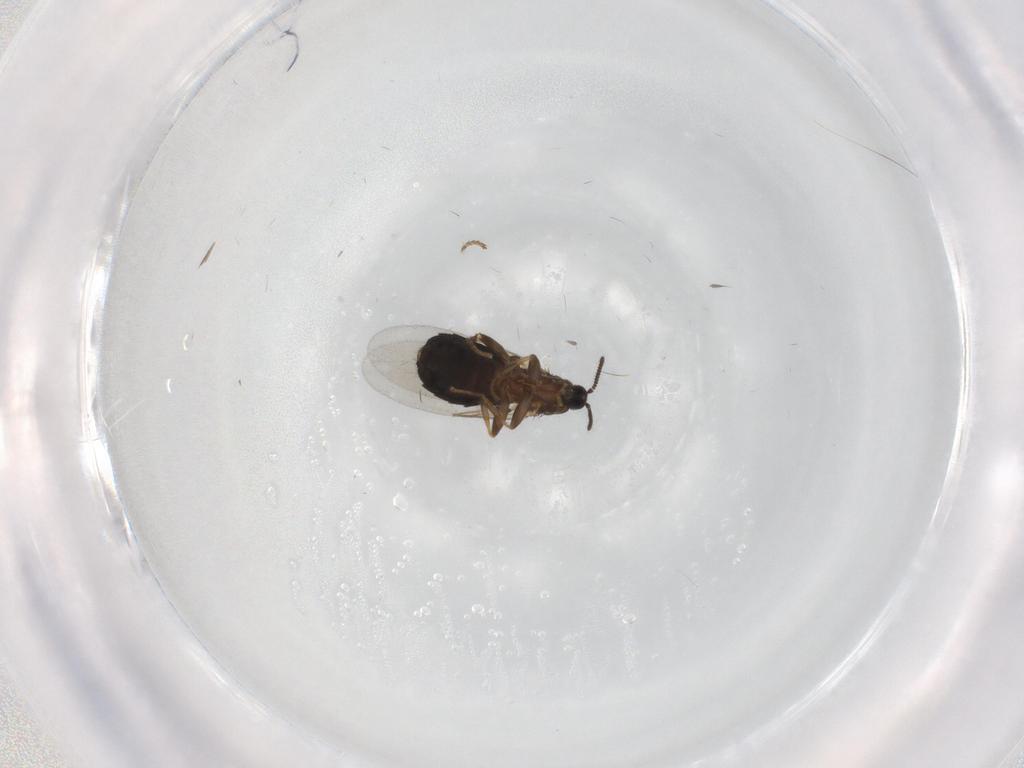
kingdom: Animalia
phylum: Arthropoda
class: Insecta
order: Diptera
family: Scatopsidae
